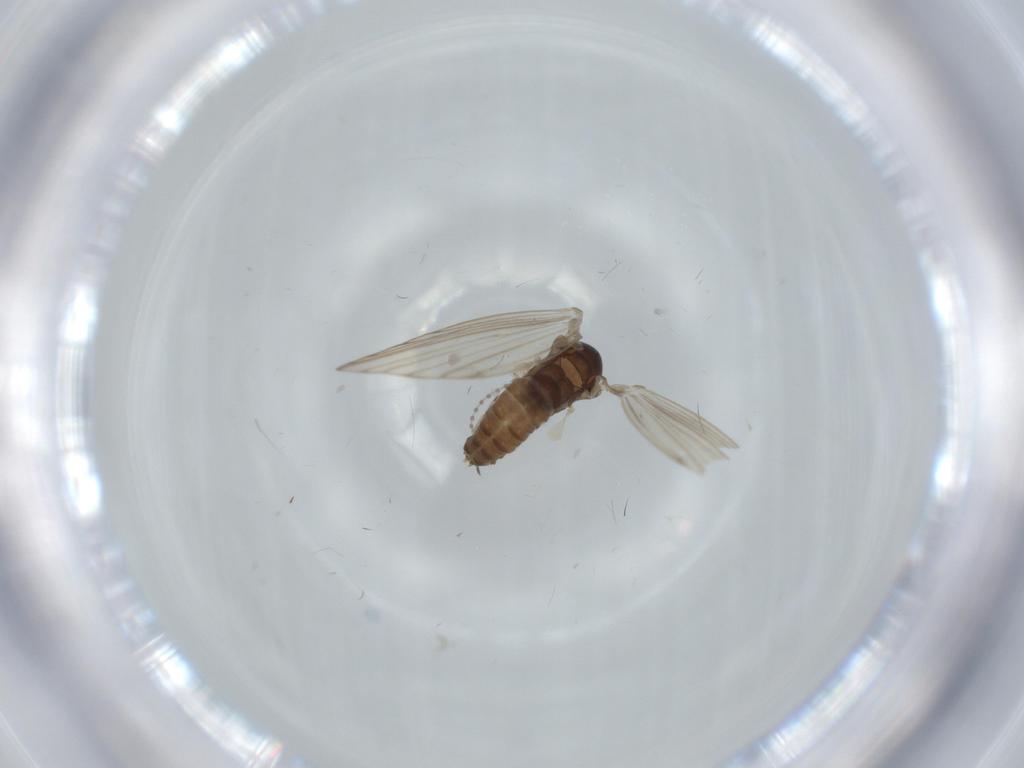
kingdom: Animalia
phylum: Arthropoda
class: Insecta
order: Diptera
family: Psychodidae
